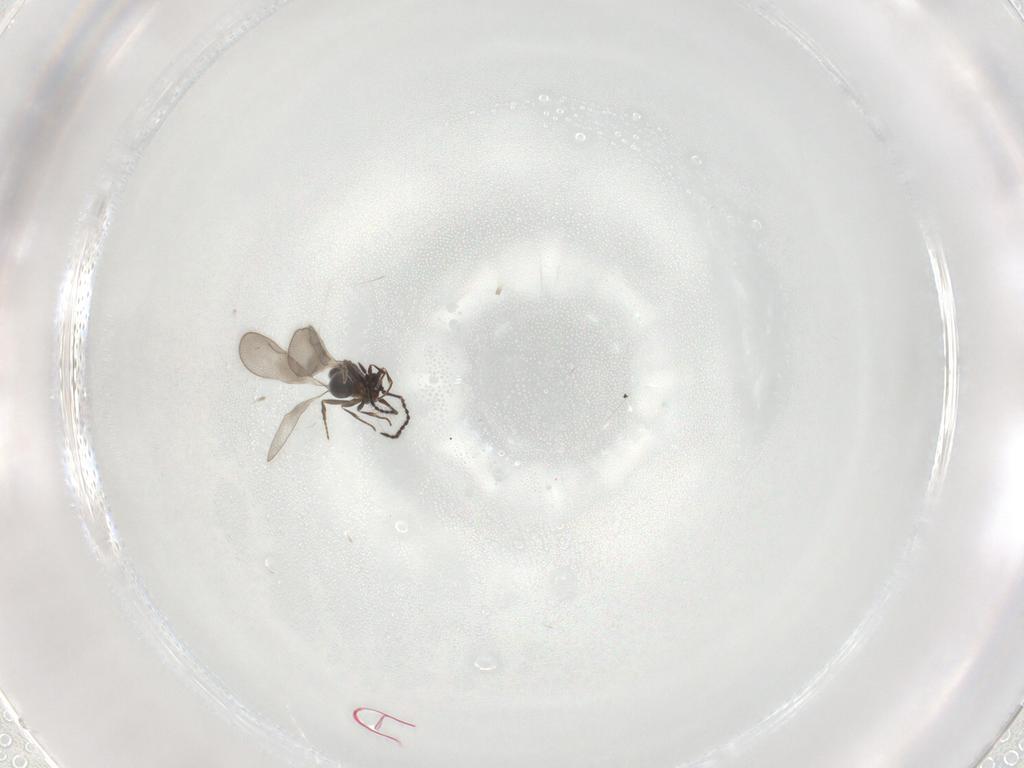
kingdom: Animalia
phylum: Arthropoda
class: Insecta
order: Hymenoptera
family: Ceraphronidae
